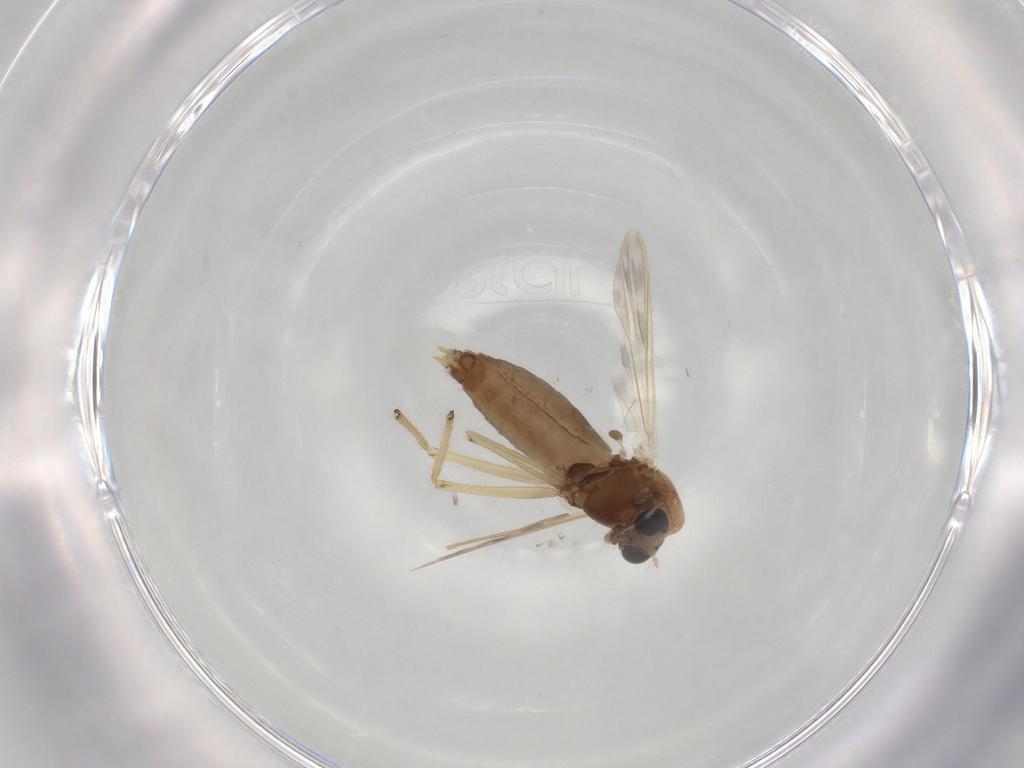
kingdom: Animalia
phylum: Arthropoda
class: Insecta
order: Diptera
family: Chironomidae
